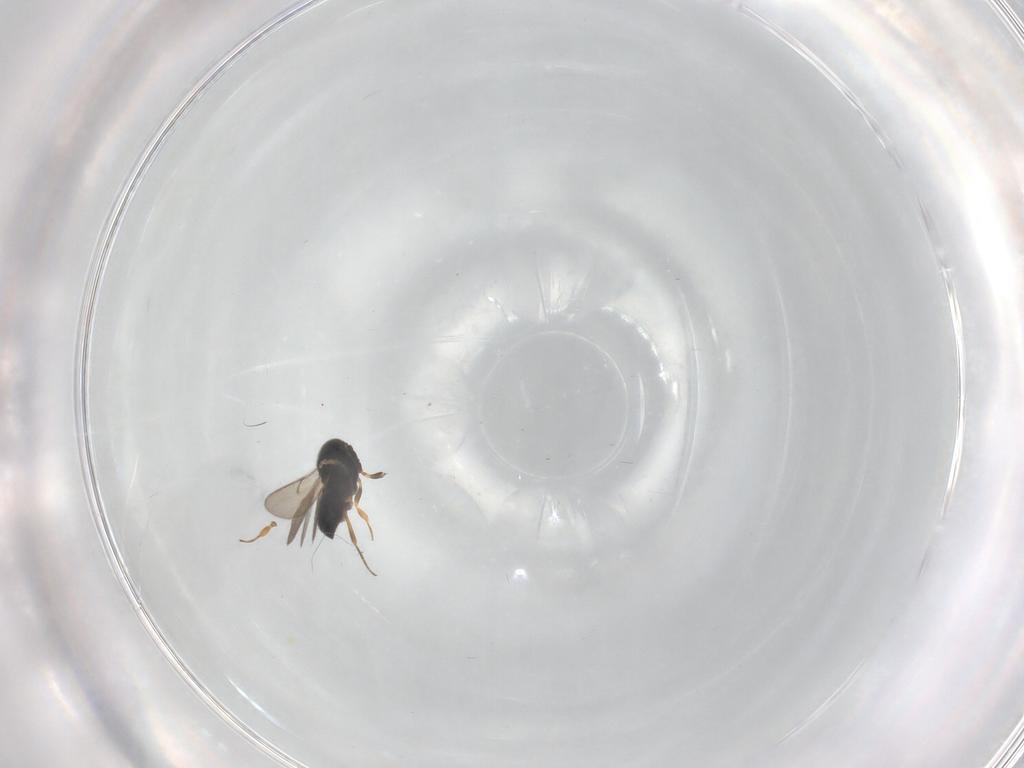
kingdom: Animalia
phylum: Arthropoda
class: Insecta
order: Hymenoptera
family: Scelionidae
